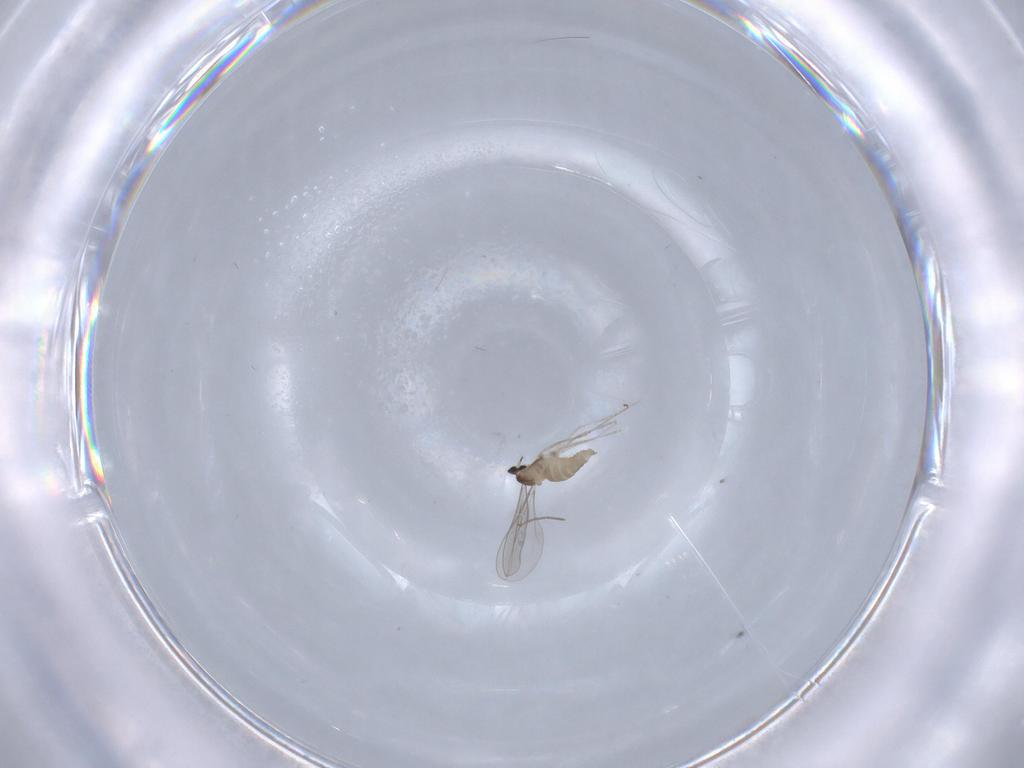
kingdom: Animalia
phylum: Arthropoda
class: Insecta
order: Diptera
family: Cecidomyiidae
